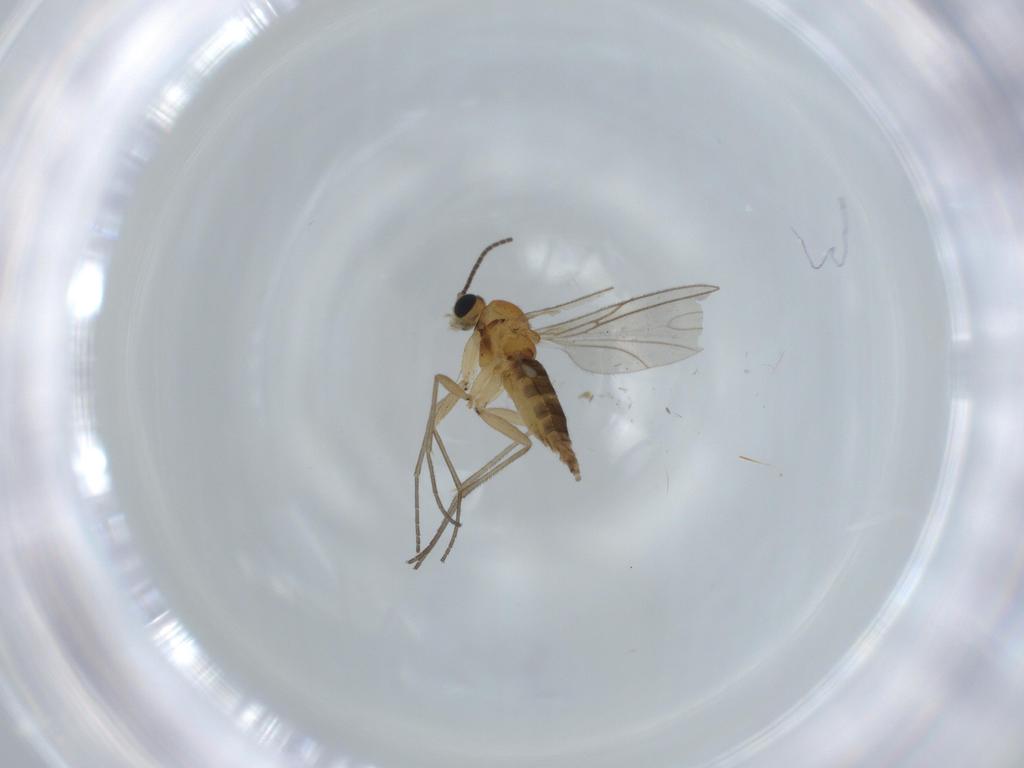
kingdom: Animalia
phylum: Arthropoda
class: Insecta
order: Diptera
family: Sciaridae
